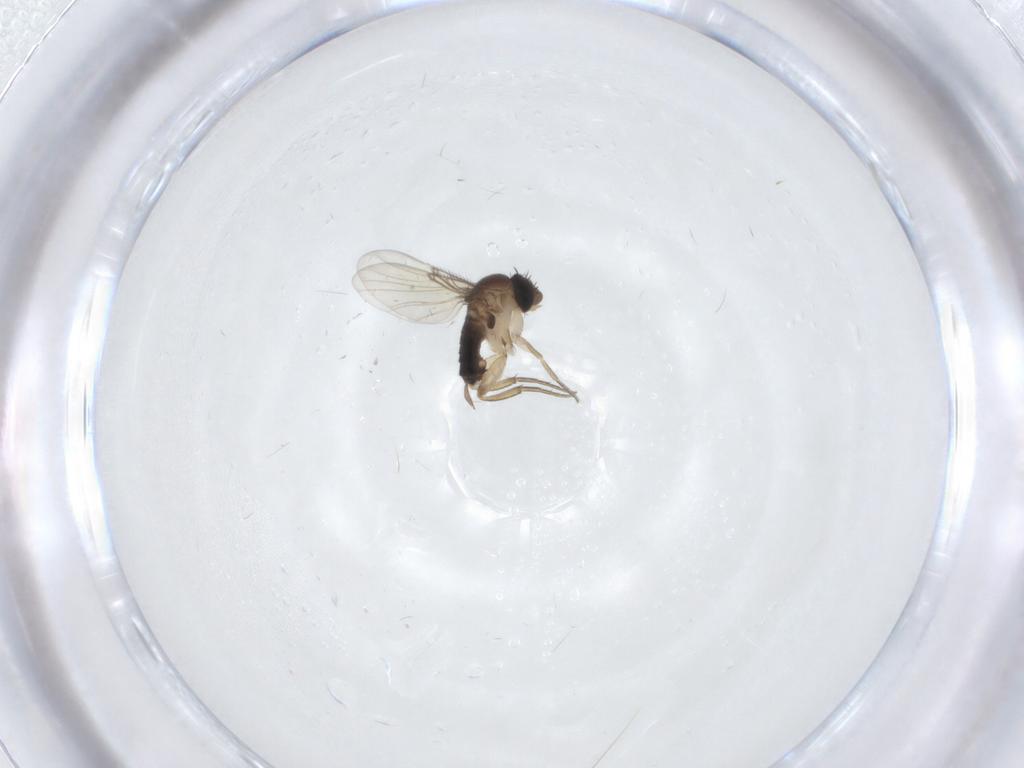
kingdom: Animalia
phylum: Arthropoda
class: Insecta
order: Diptera
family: Phoridae
